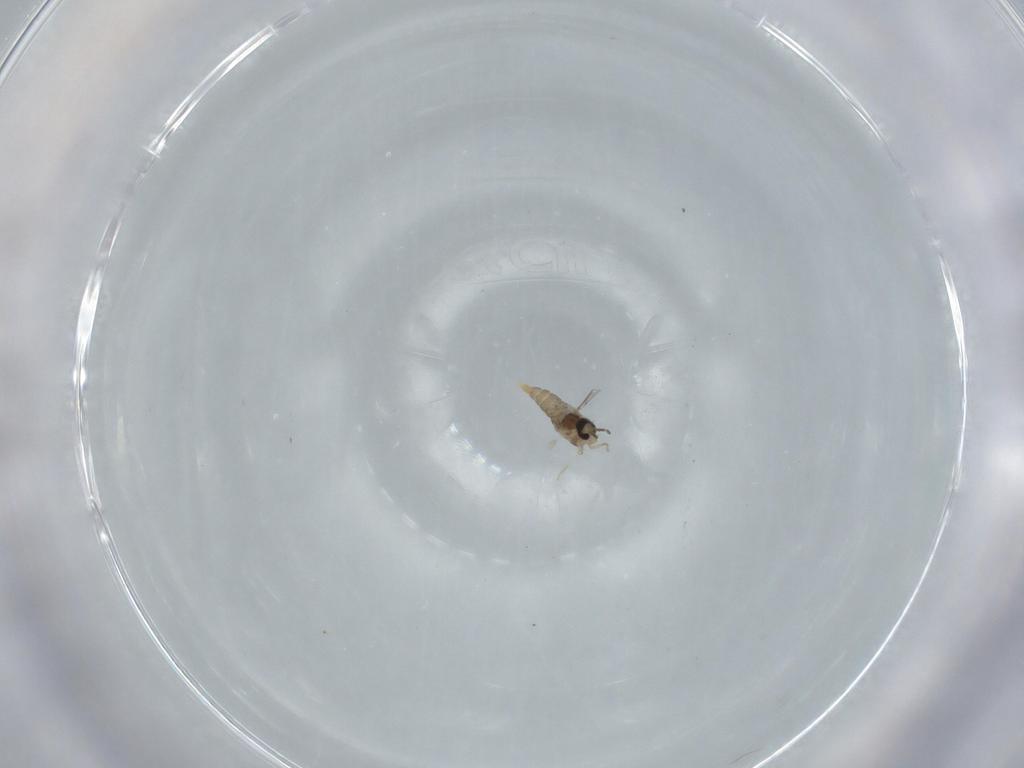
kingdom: Animalia
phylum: Arthropoda
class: Insecta
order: Diptera
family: Cecidomyiidae
